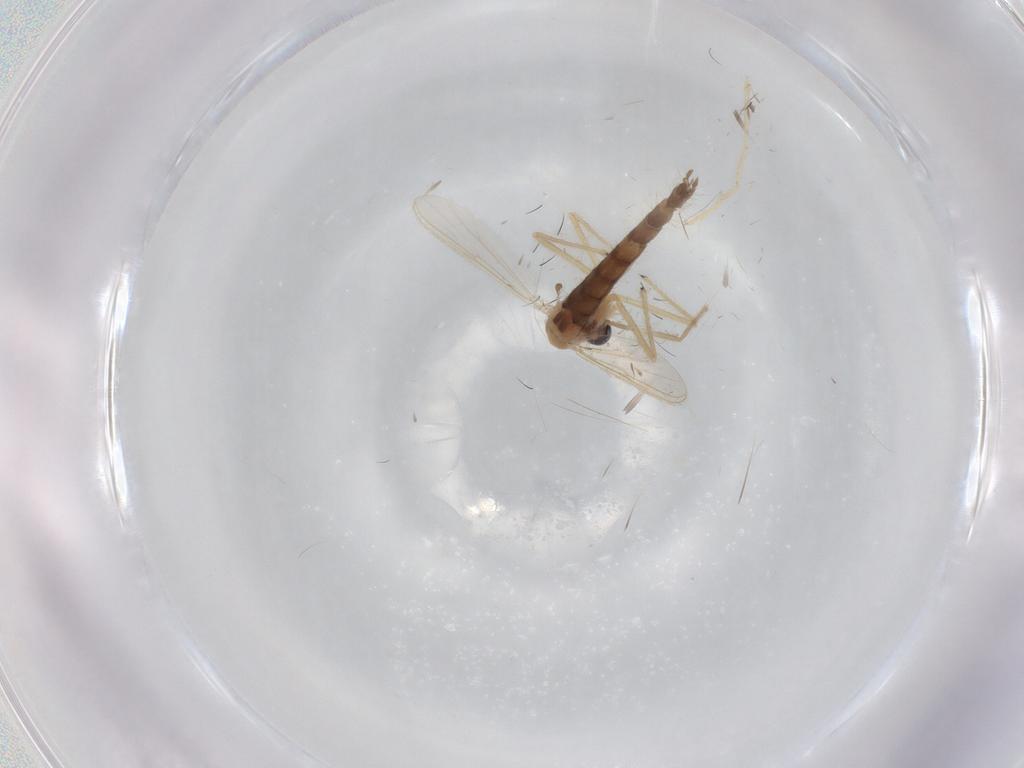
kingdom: Animalia
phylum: Arthropoda
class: Insecta
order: Diptera
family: Chironomidae
